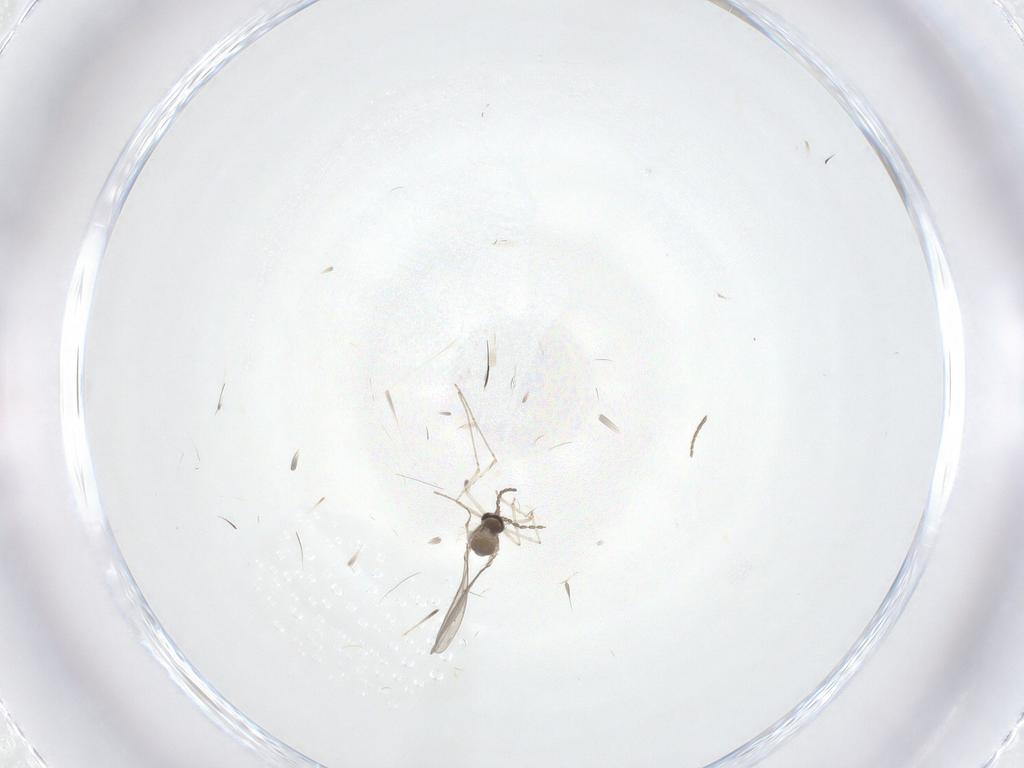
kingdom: Animalia
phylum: Arthropoda
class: Insecta
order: Diptera
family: Cecidomyiidae
